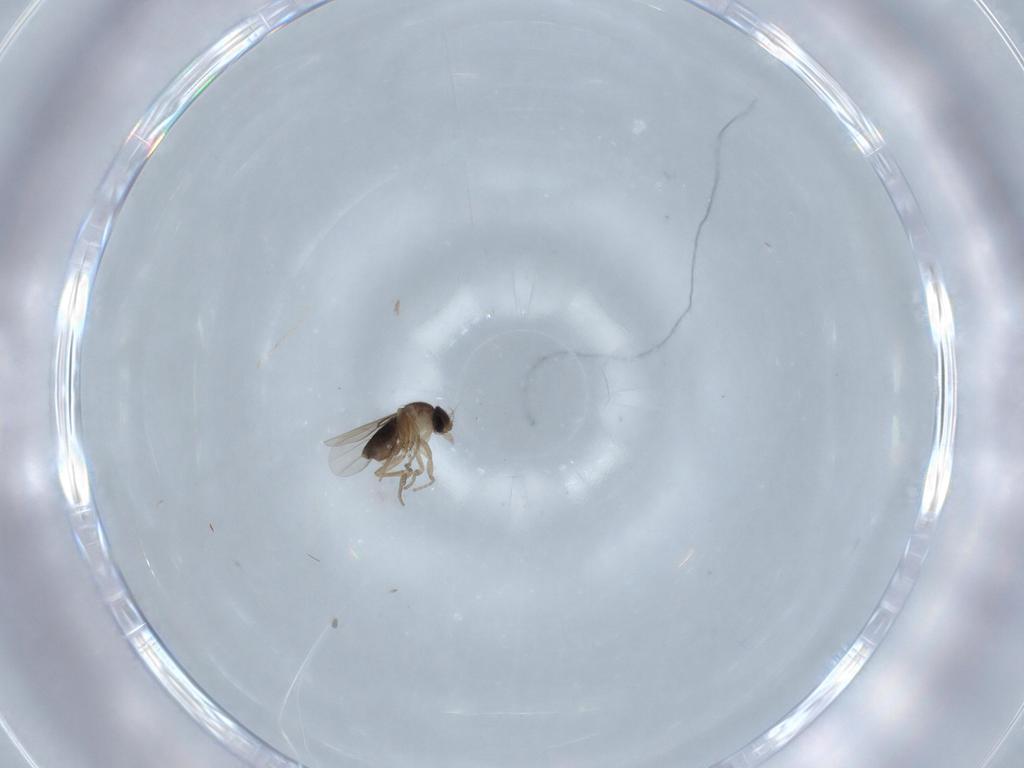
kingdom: Animalia
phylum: Arthropoda
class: Insecta
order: Diptera
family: Phoridae
